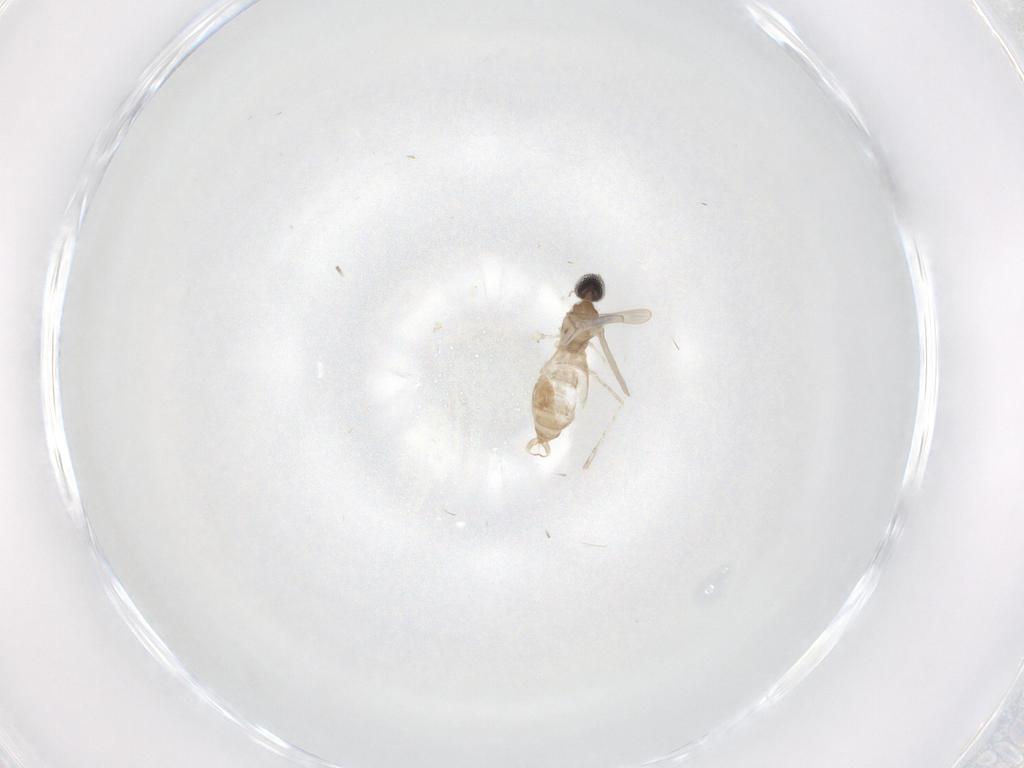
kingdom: Animalia
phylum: Arthropoda
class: Insecta
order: Diptera
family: Cecidomyiidae
